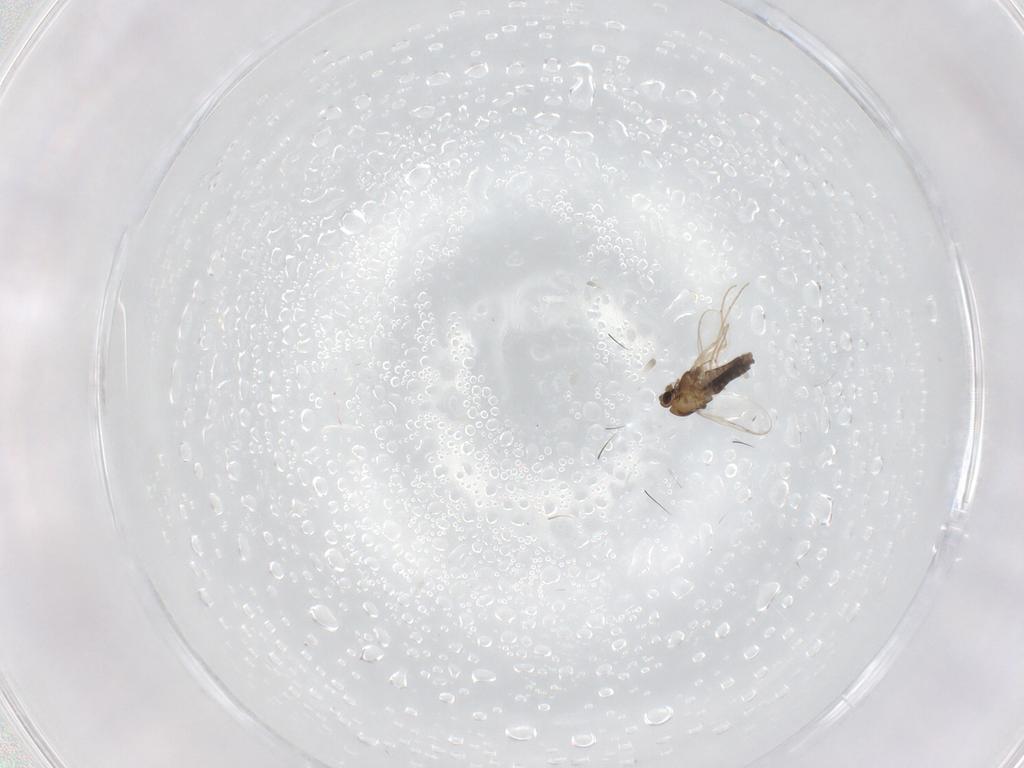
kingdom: Animalia
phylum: Arthropoda
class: Insecta
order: Diptera
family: Chironomidae
